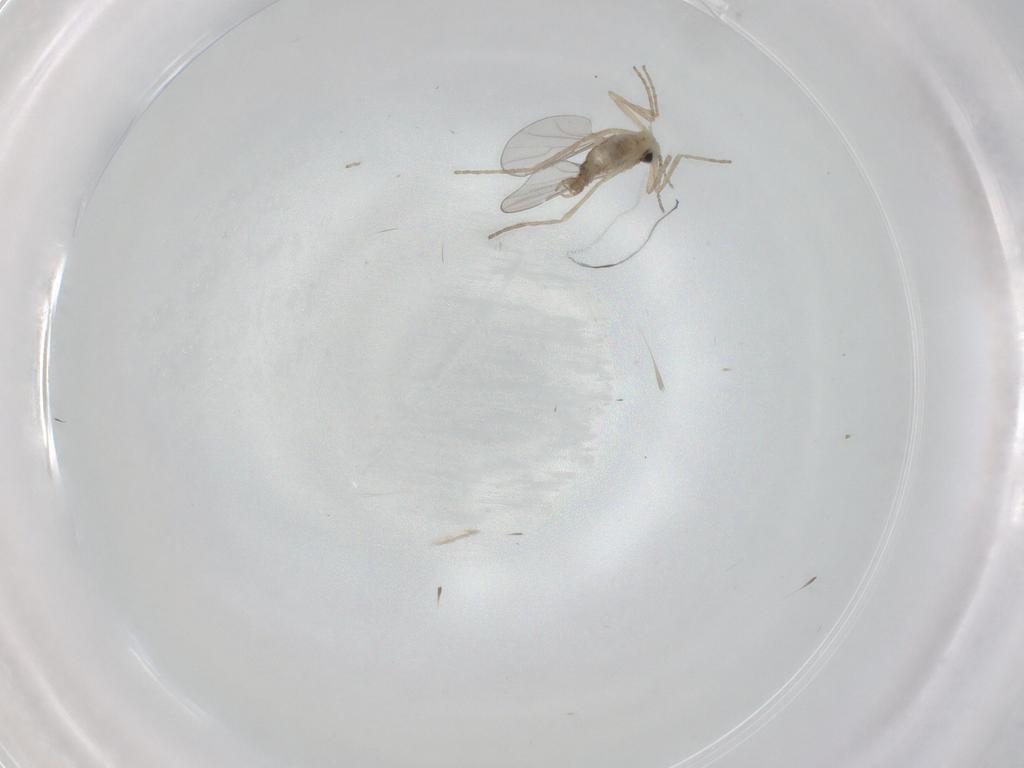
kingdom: Animalia
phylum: Arthropoda
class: Insecta
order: Diptera
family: Cecidomyiidae
